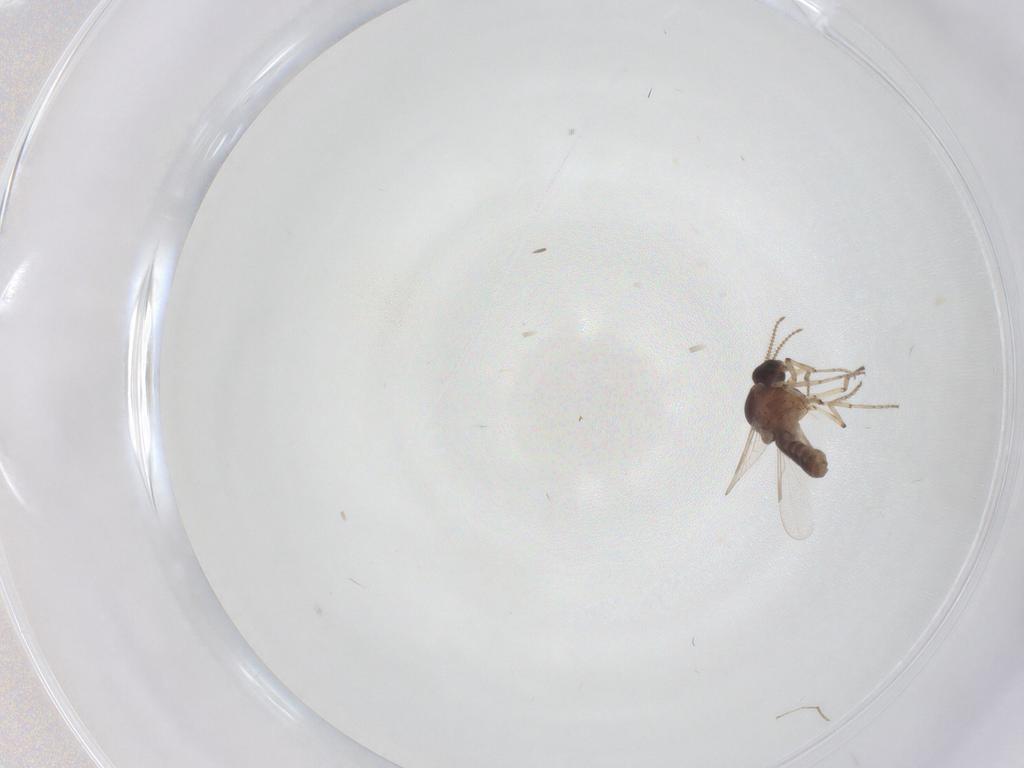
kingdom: Animalia
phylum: Arthropoda
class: Insecta
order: Diptera
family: Ceratopogonidae
